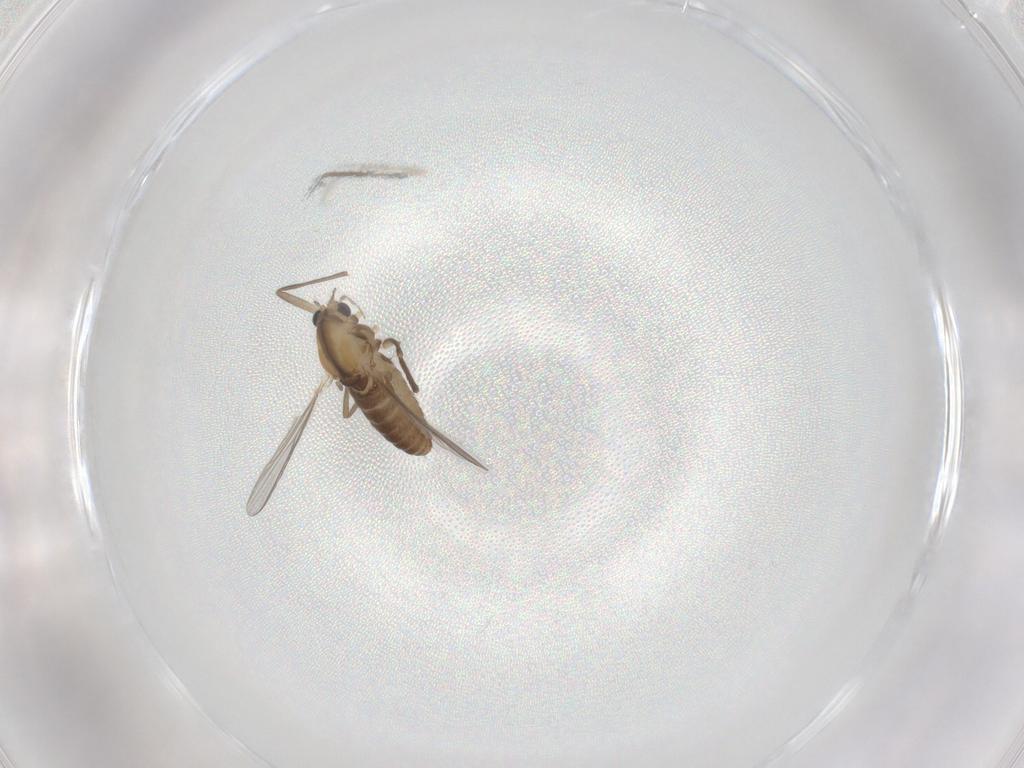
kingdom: Animalia
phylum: Arthropoda
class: Insecta
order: Diptera
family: Chironomidae
